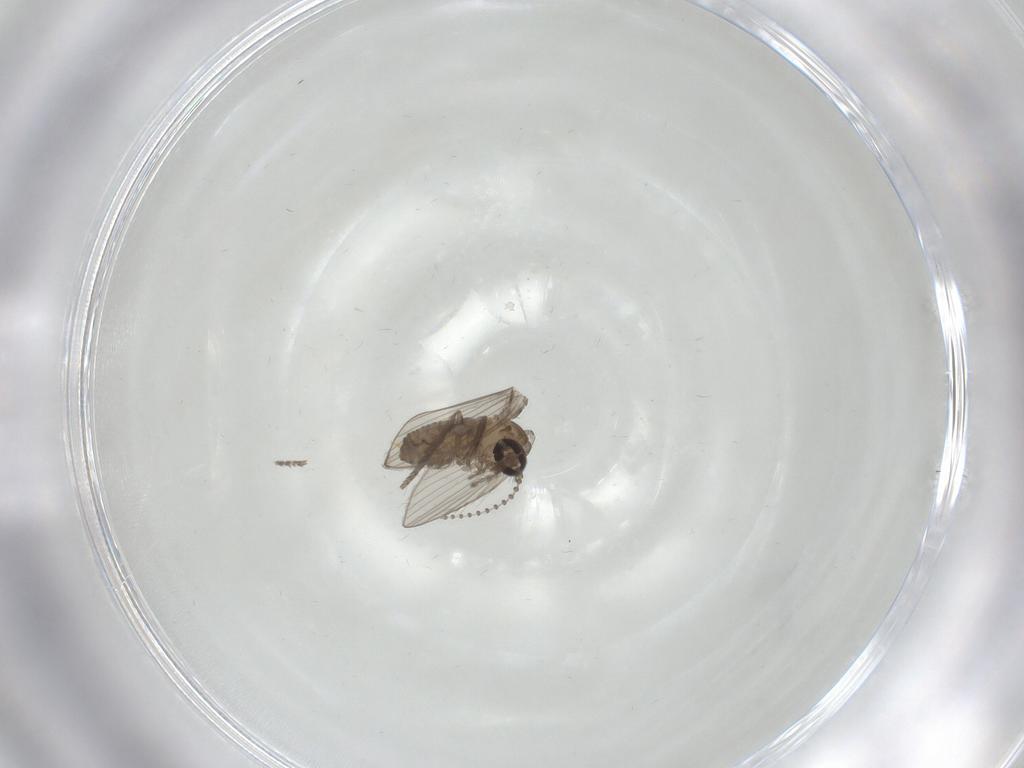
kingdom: Animalia
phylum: Arthropoda
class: Insecta
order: Diptera
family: Psychodidae
